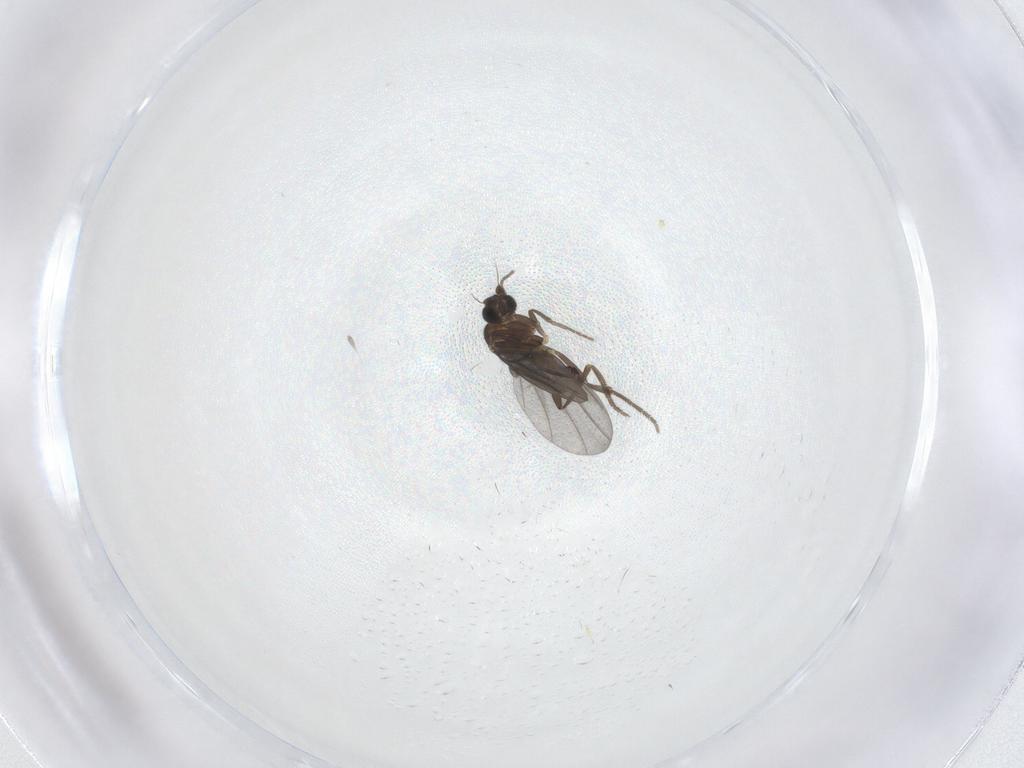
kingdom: Animalia
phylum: Arthropoda
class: Insecta
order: Diptera
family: Phoridae
